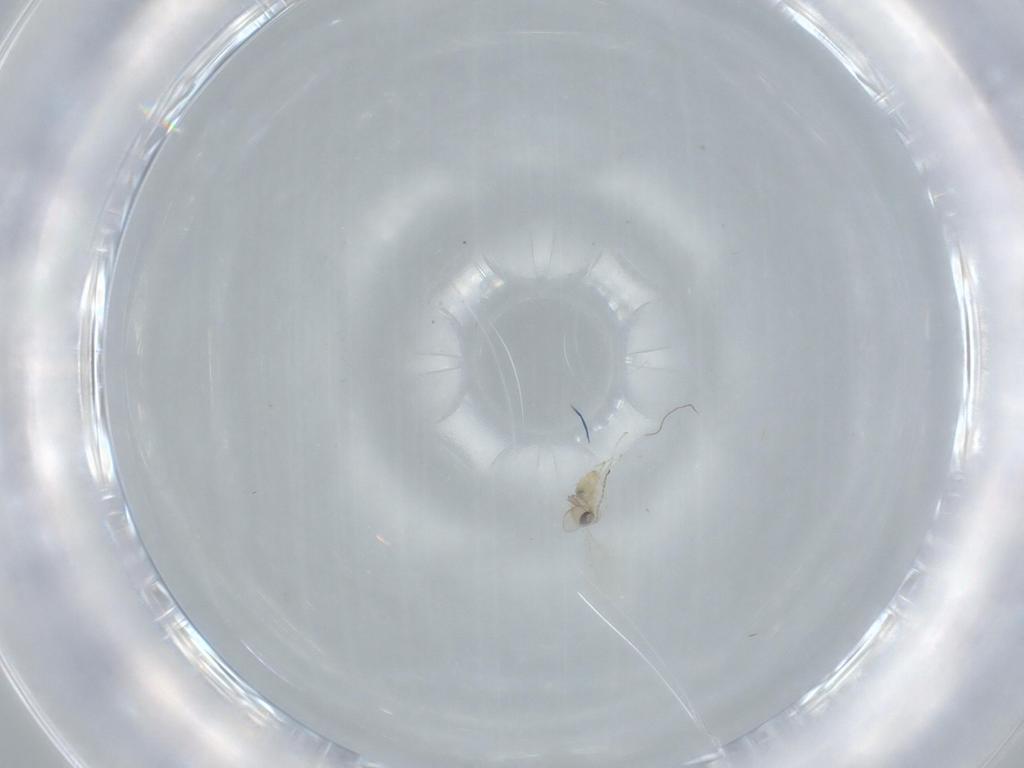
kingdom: Animalia
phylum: Arthropoda
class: Insecta
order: Diptera
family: Cecidomyiidae
